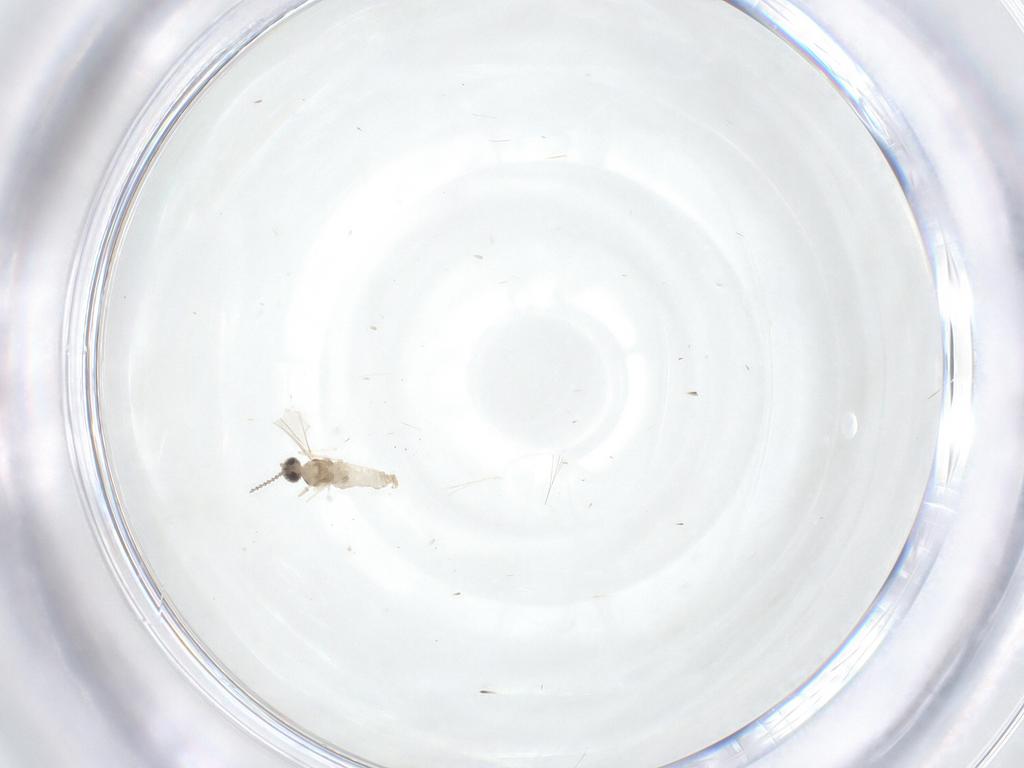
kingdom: Animalia
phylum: Arthropoda
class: Insecta
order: Diptera
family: Cecidomyiidae
